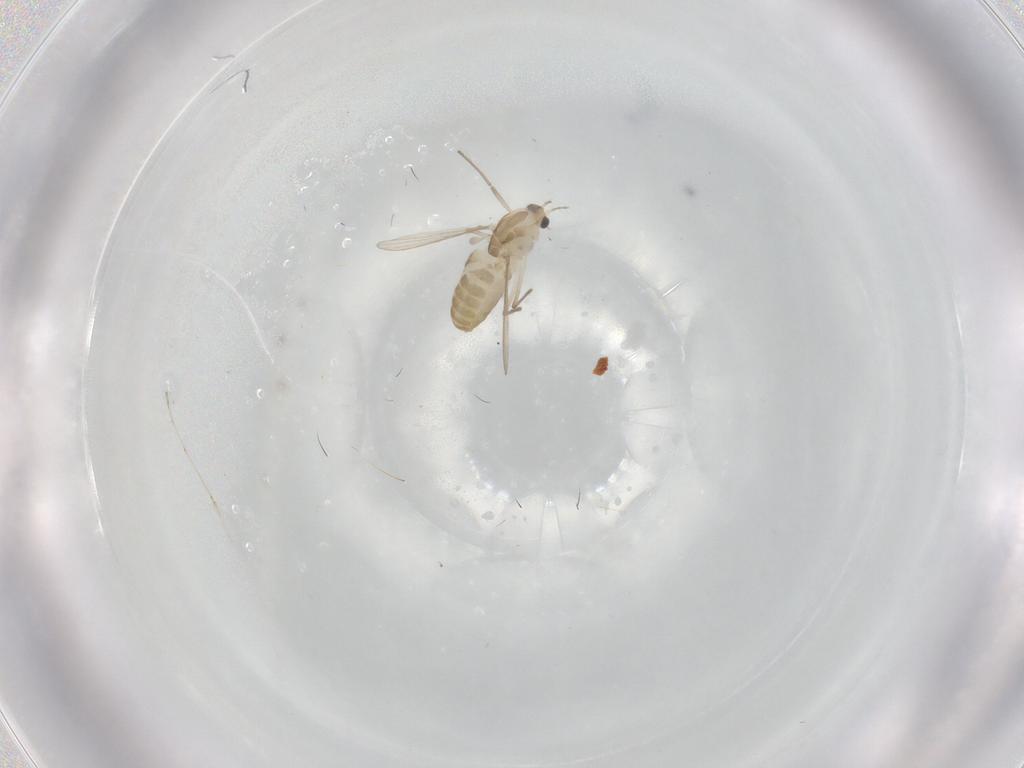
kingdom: Animalia
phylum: Arthropoda
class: Insecta
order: Diptera
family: Chironomidae
